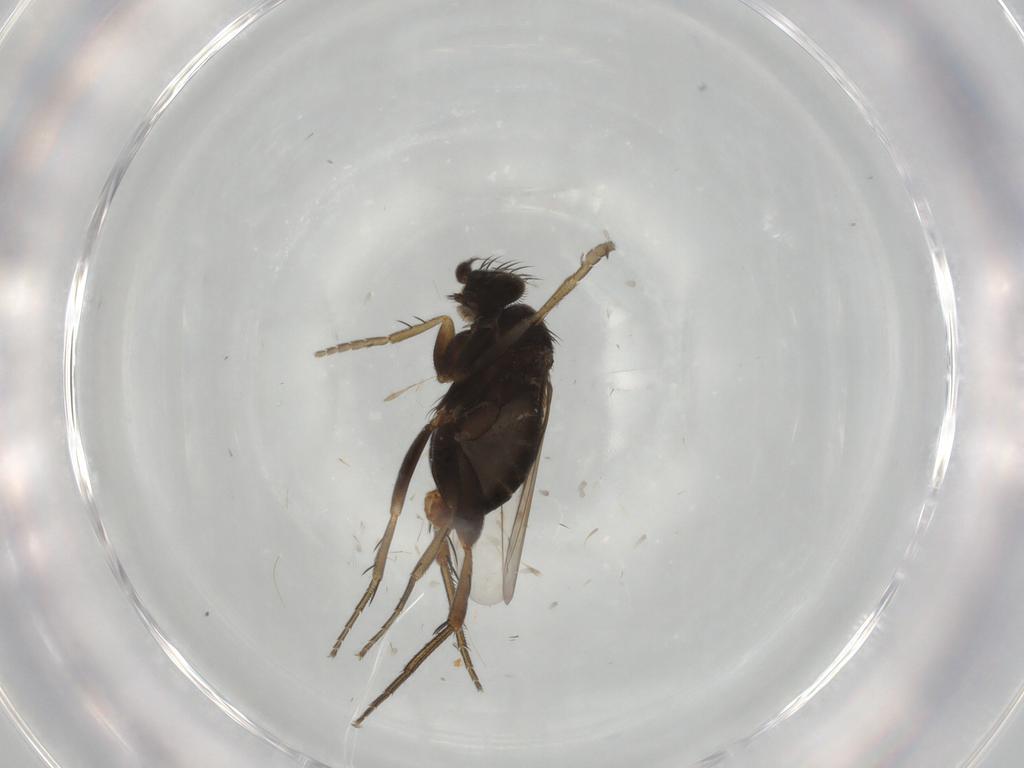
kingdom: Animalia
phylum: Arthropoda
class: Insecta
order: Diptera
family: Phoridae
